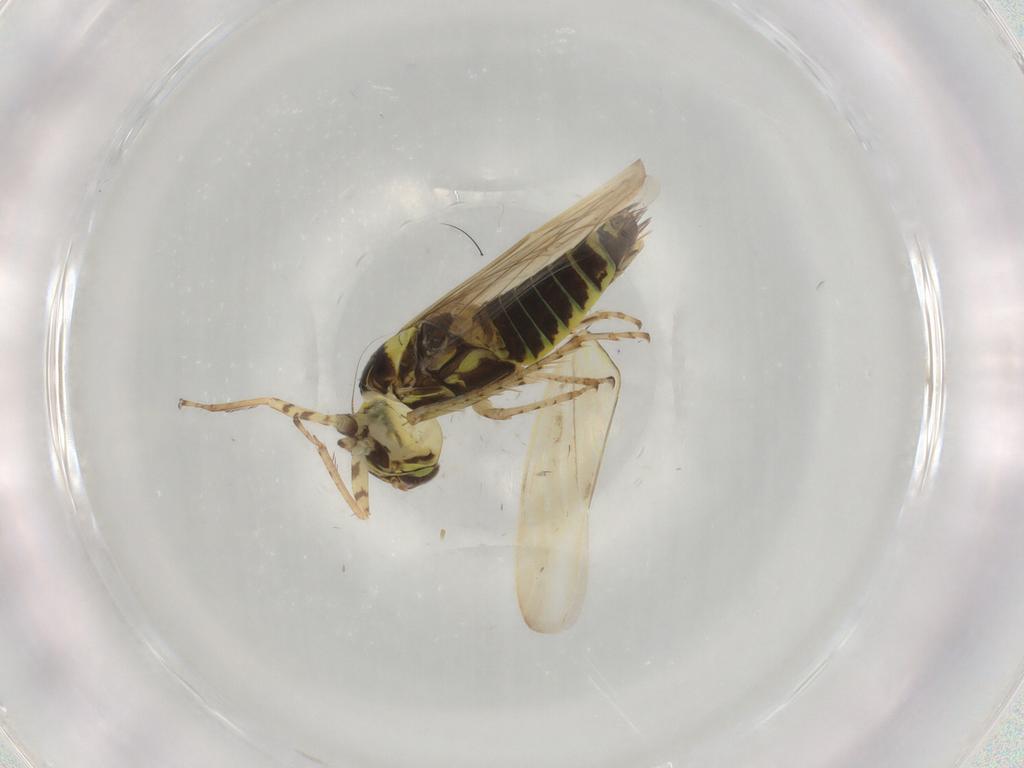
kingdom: Animalia
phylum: Arthropoda
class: Insecta
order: Hemiptera
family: Cicadellidae
